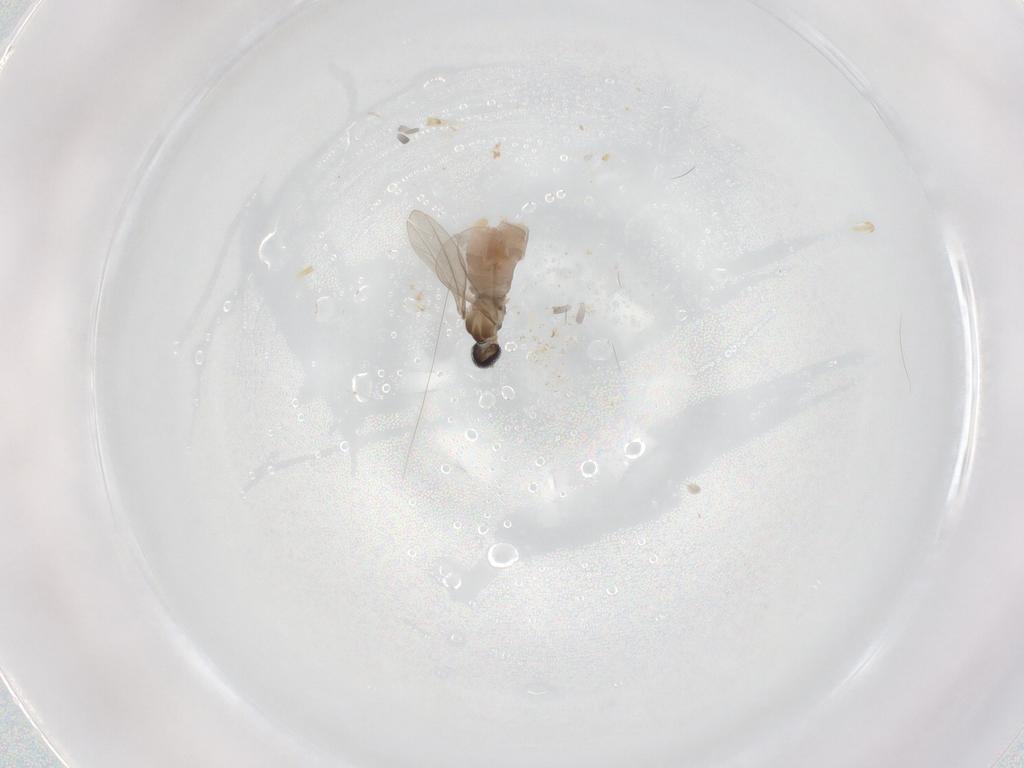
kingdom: Animalia
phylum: Arthropoda
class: Insecta
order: Diptera
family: Cecidomyiidae
